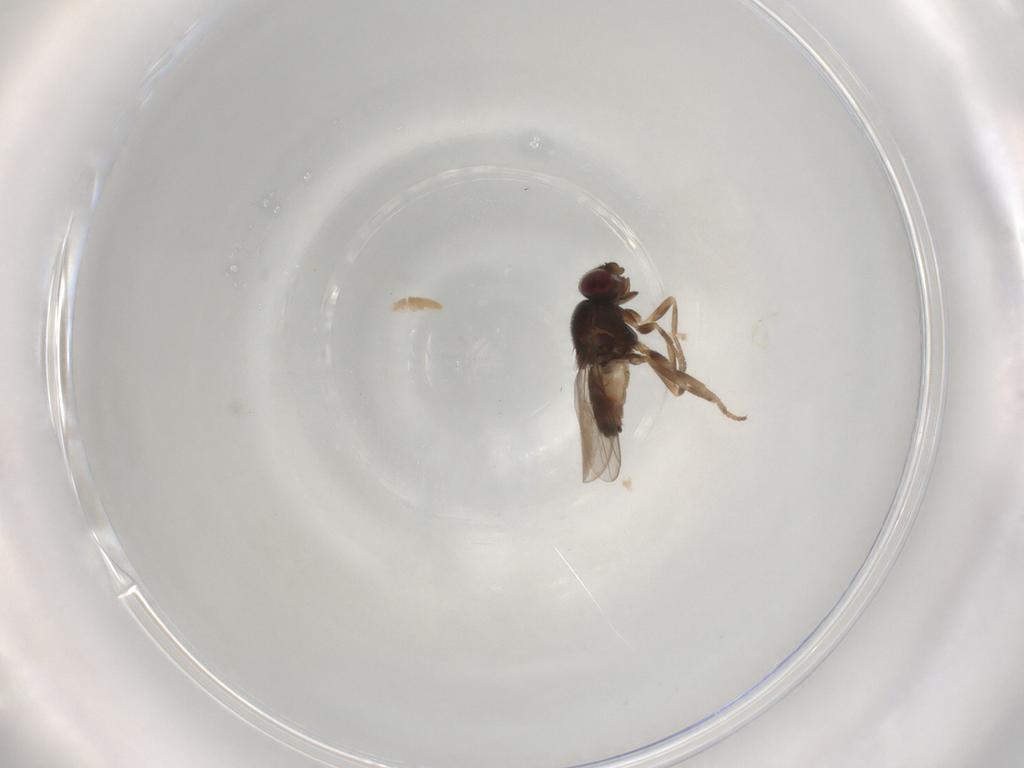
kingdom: Animalia
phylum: Arthropoda
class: Insecta
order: Diptera
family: Chloropidae
